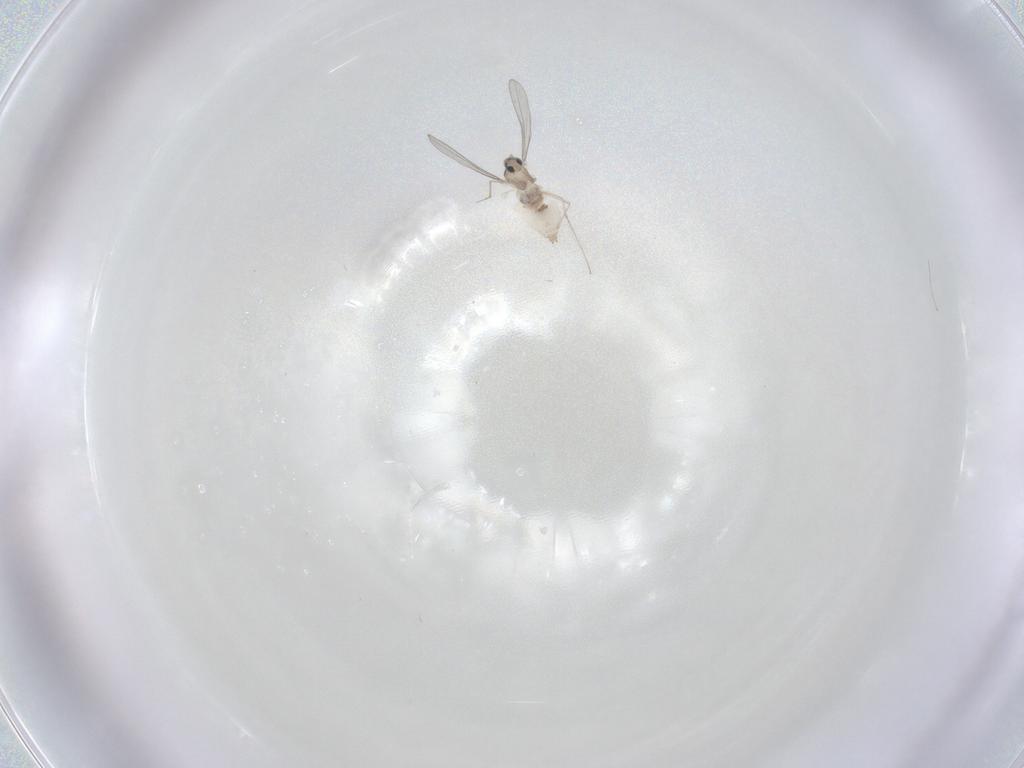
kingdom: Animalia
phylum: Arthropoda
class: Insecta
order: Diptera
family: Cecidomyiidae
